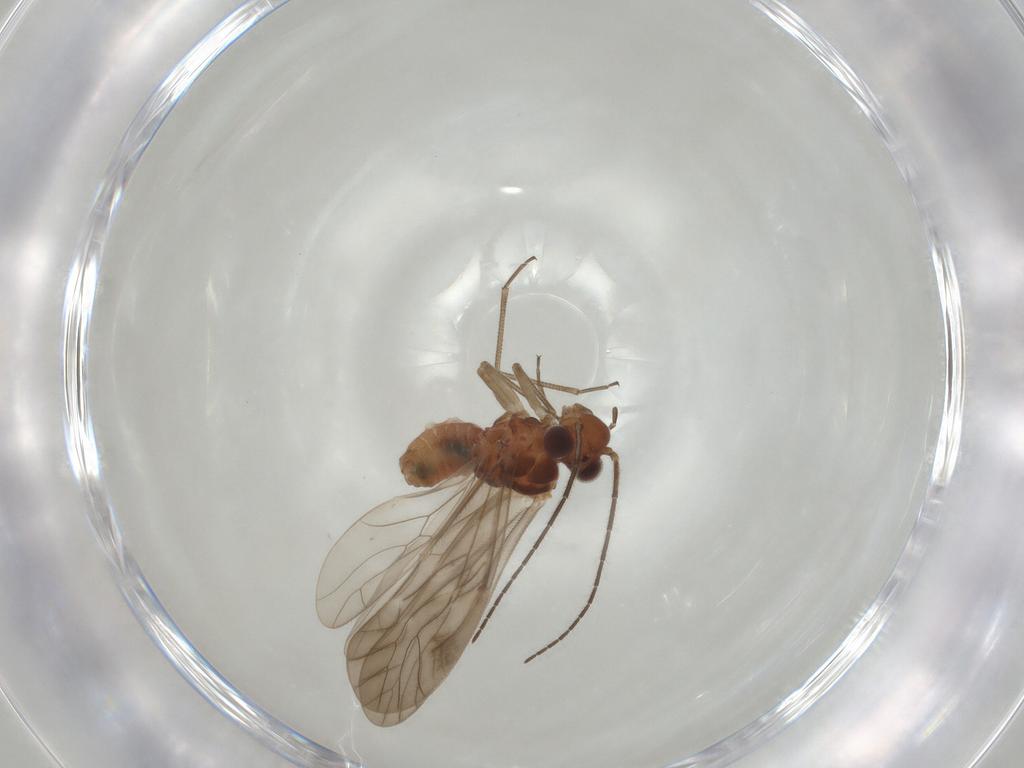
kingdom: Animalia
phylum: Arthropoda
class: Insecta
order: Psocodea
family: Caeciliusidae
